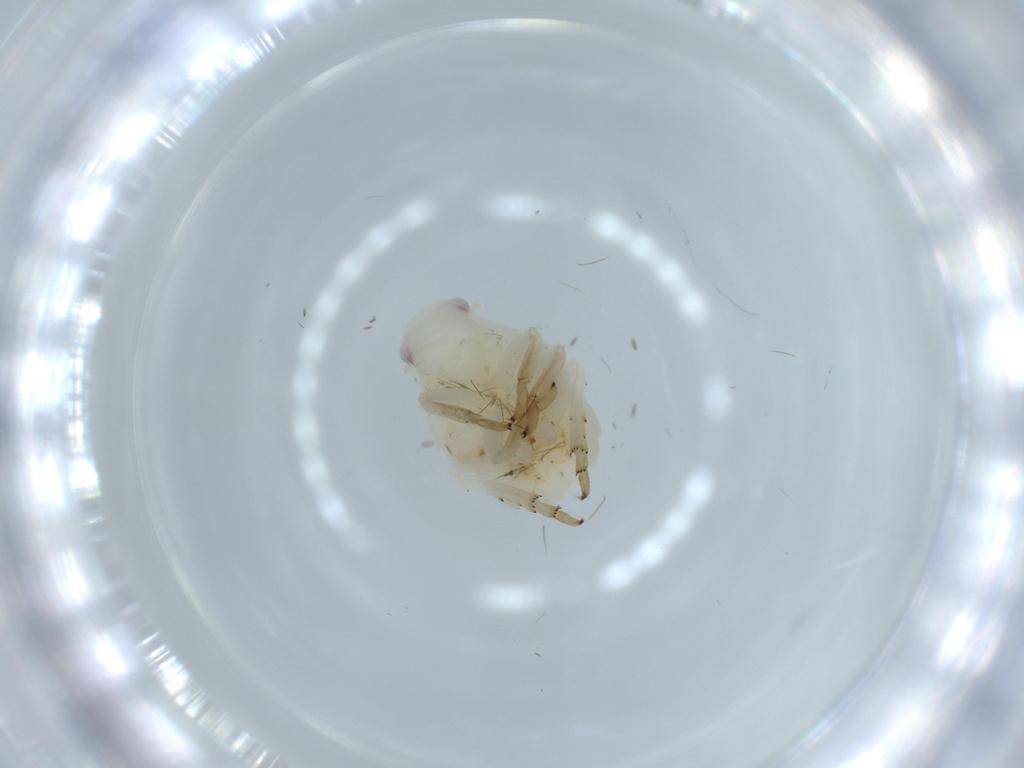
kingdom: Animalia
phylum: Arthropoda
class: Insecta
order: Hemiptera
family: Flatidae
